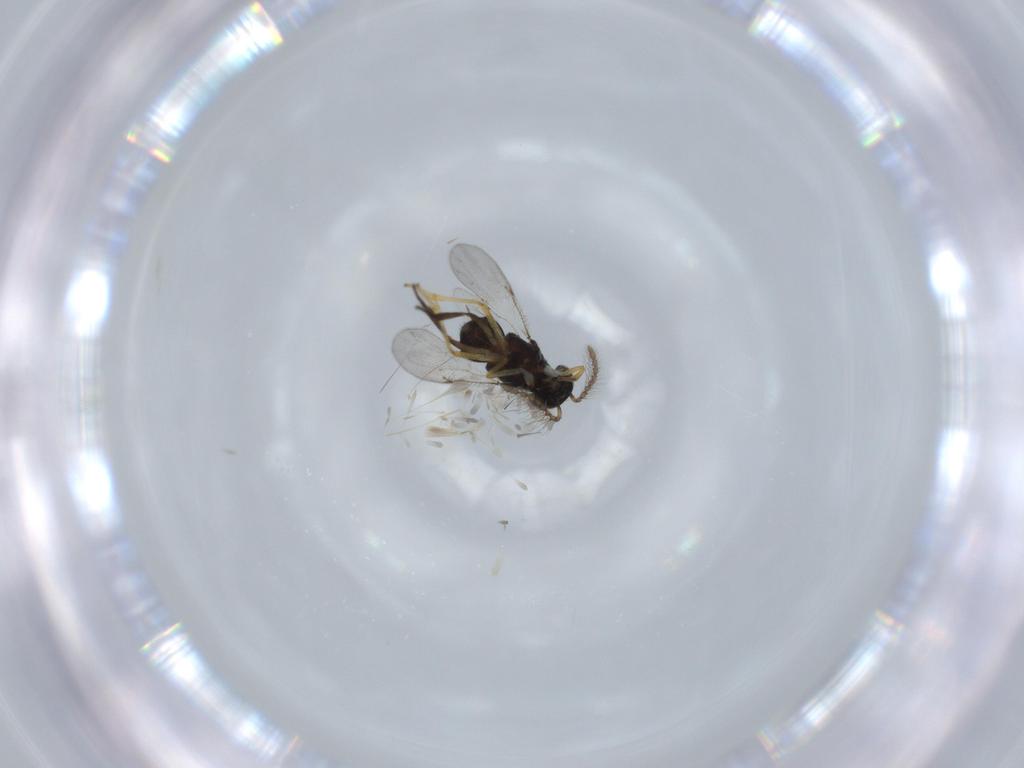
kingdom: Animalia
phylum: Arthropoda
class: Insecta
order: Hymenoptera
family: Encyrtidae
